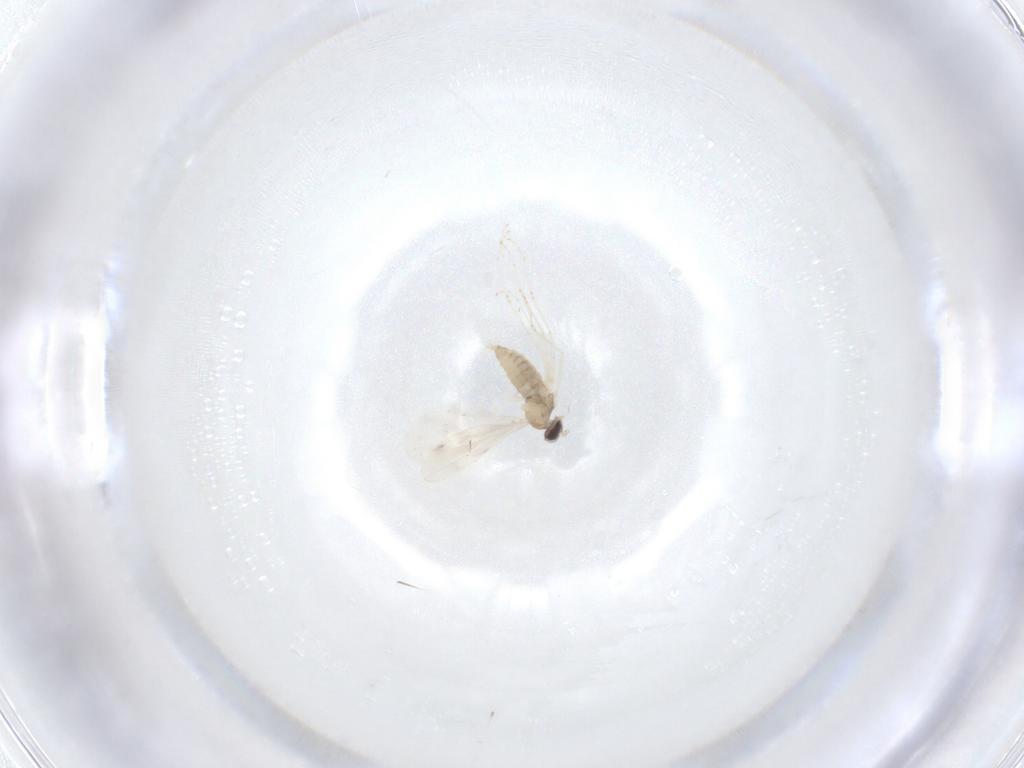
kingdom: Animalia
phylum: Arthropoda
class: Insecta
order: Diptera
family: Cecidomyiidae
